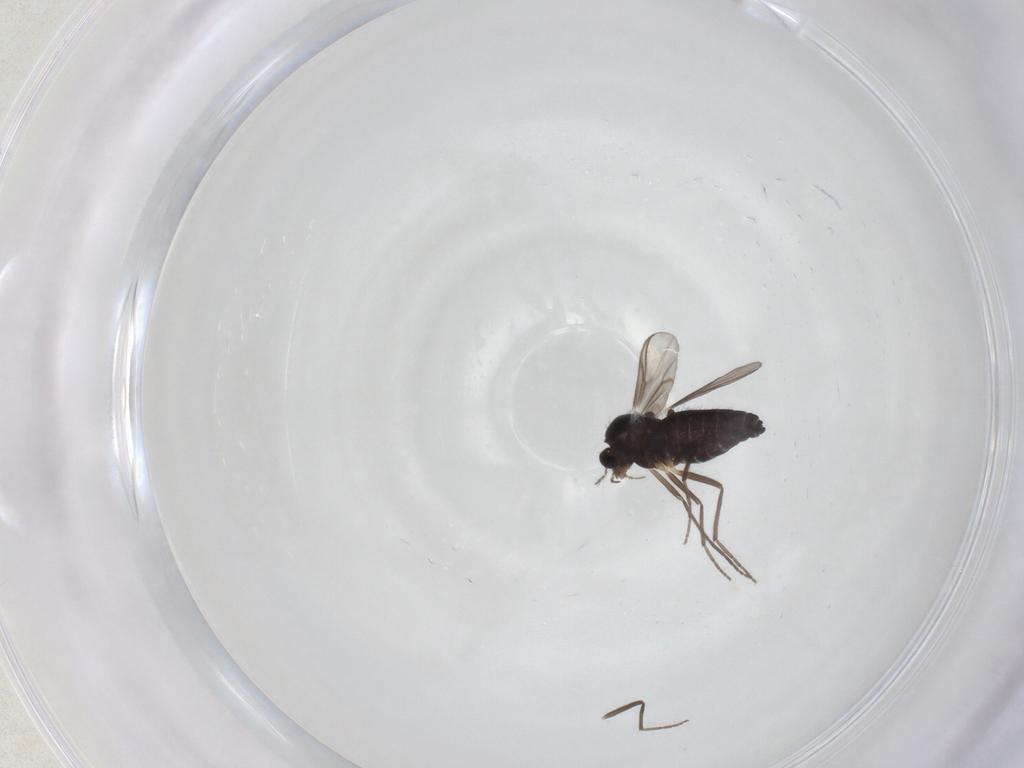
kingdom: Animalia
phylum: Arthropoda
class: Insecta
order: Diptera
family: Chironomidae
